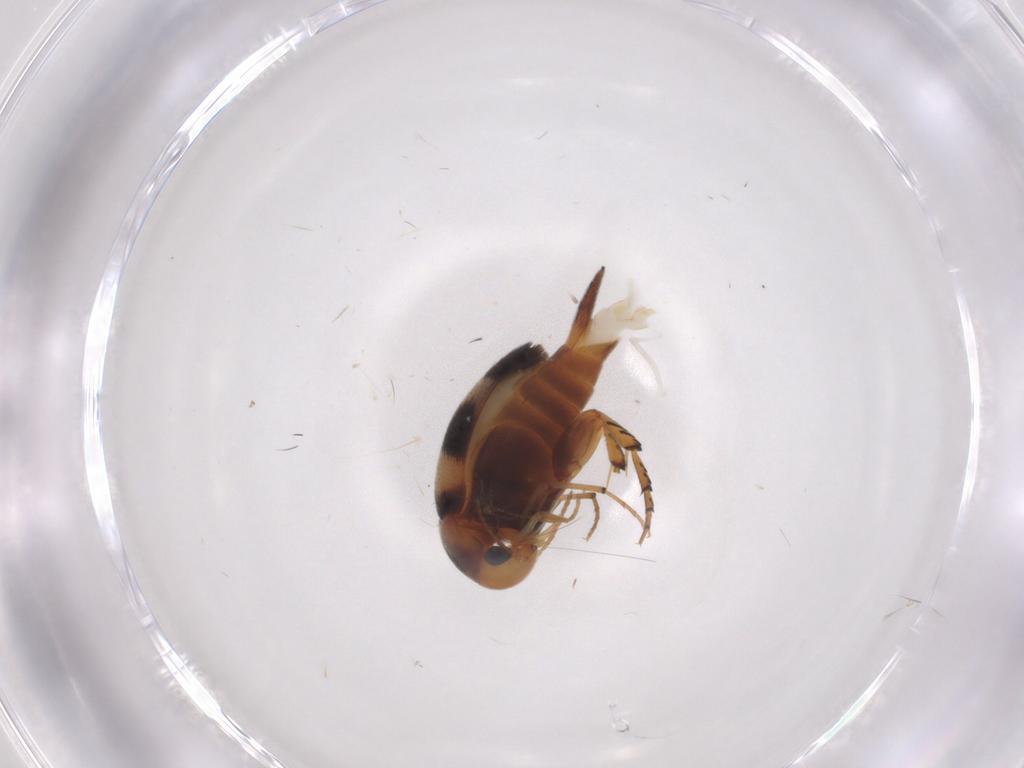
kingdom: Animalia
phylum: Arthropoda
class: Insecta
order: Coleoptera
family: Mordellidae
